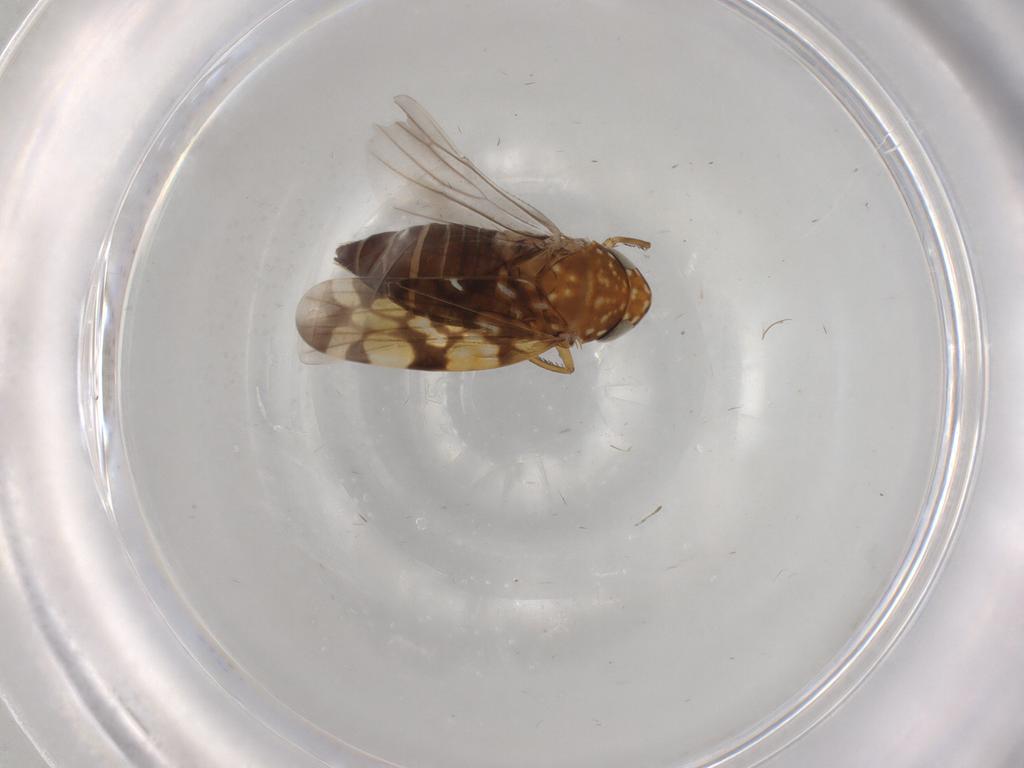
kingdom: Animalia
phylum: Arthropoda
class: Insecta
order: Hemiptera
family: Cicadellidae
